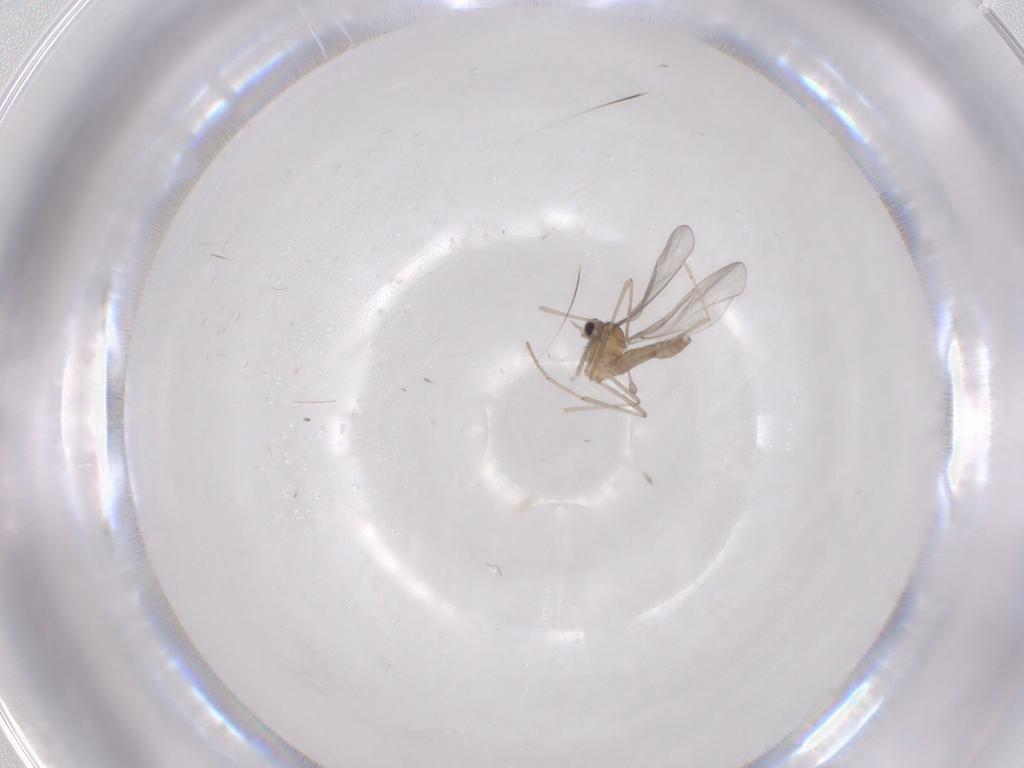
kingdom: Animalia
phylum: Arthropoda
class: Insecta
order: Diptera
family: Cecidomyiidae
